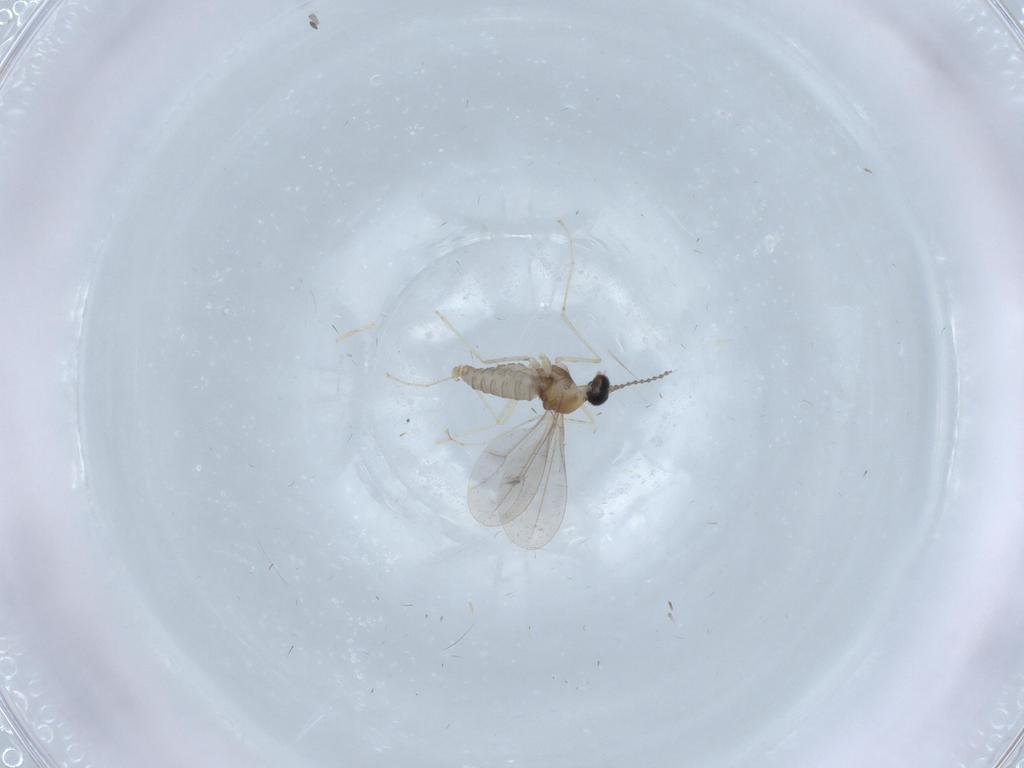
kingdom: Animalia
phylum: Arthropoda
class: Insecta
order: Diptera
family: Cecidomyiidae
